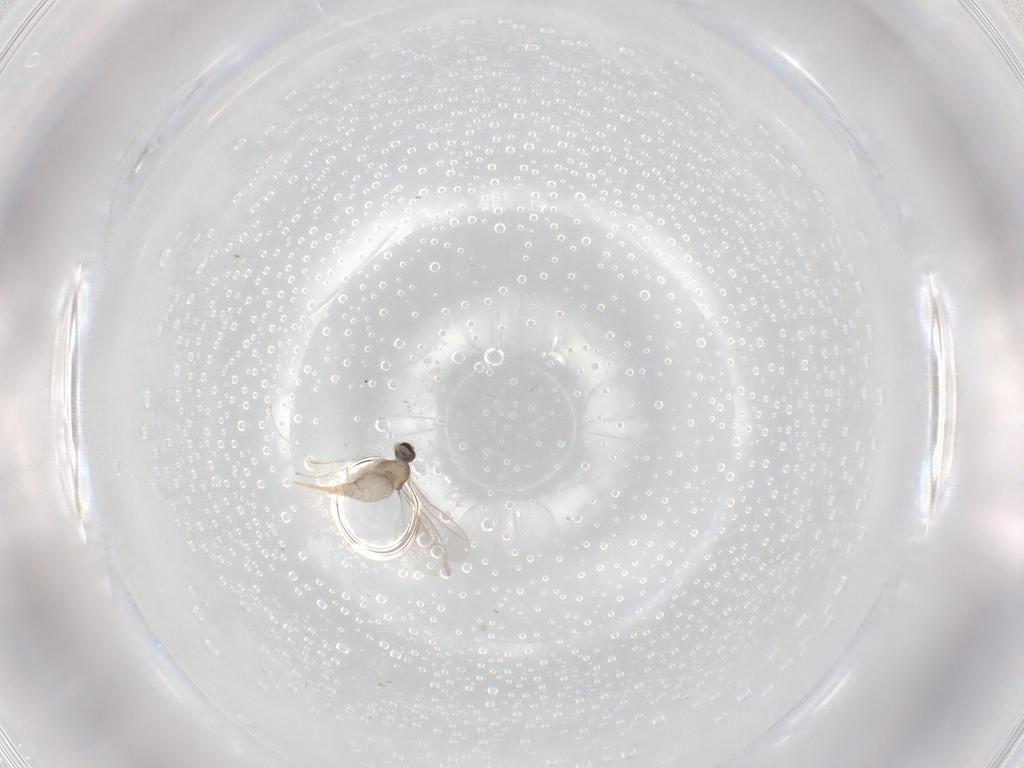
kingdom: Animalia
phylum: Arthropoda
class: Insecta
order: Diptera
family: Cecidomyiidae
